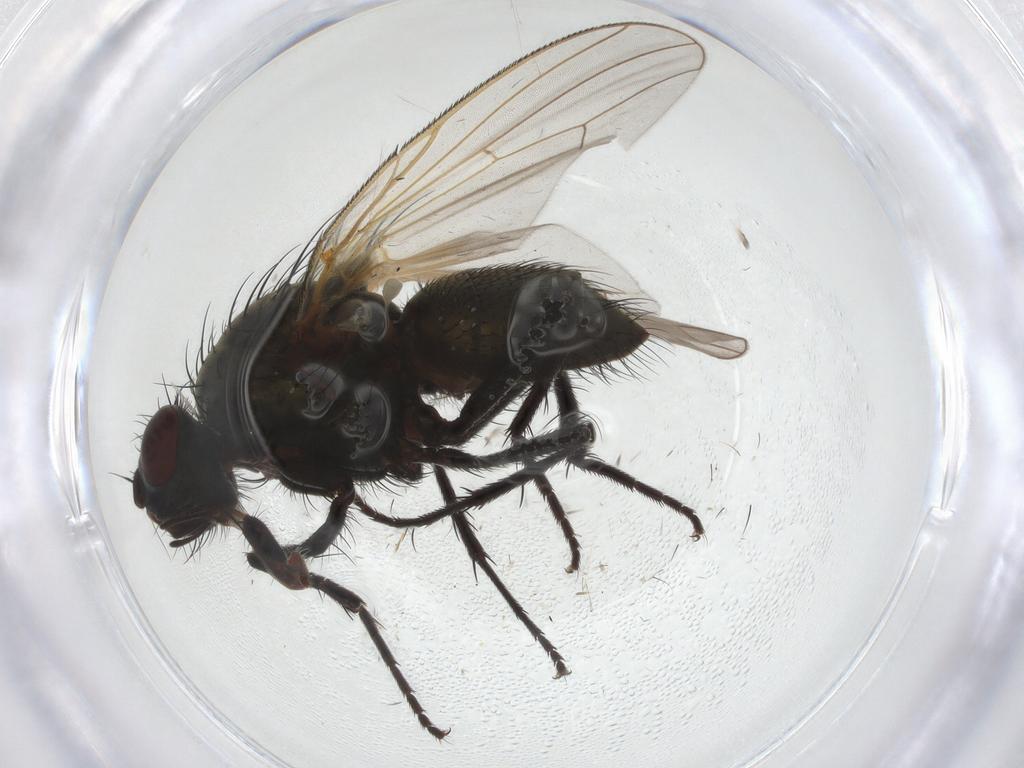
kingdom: Animalia
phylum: Arthropoda
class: Insecta
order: Diptera
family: Anthomyiidae
